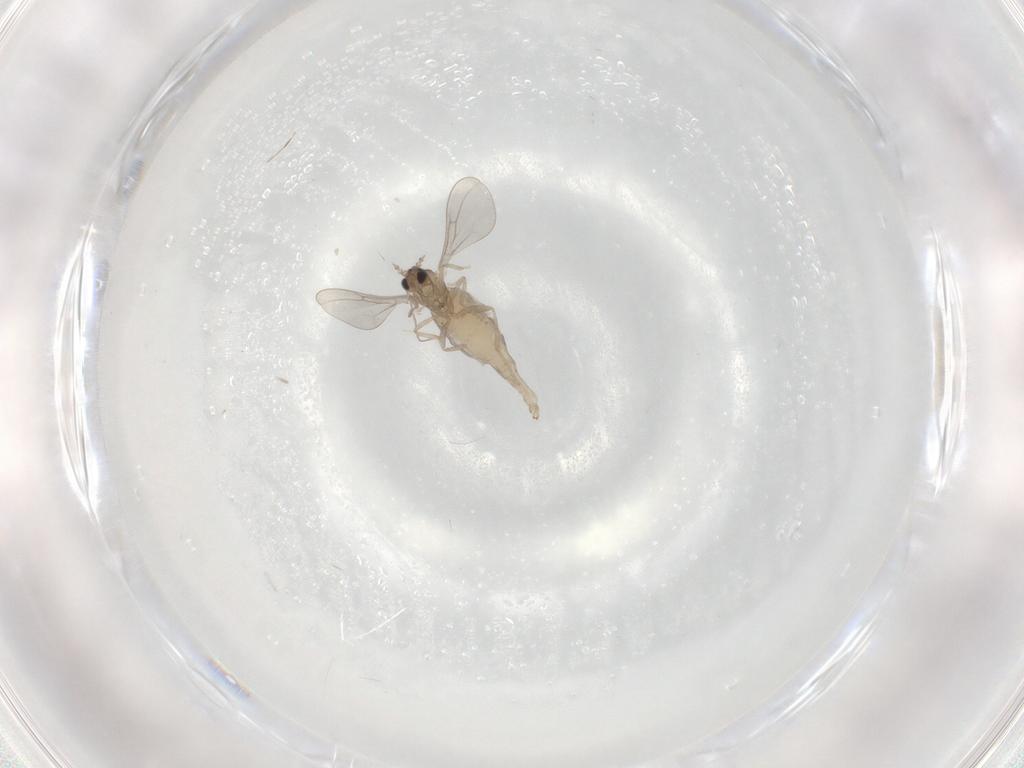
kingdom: Animalia
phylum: Arthropoda
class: Insecta
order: Diptera
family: Cecidomyiidae
